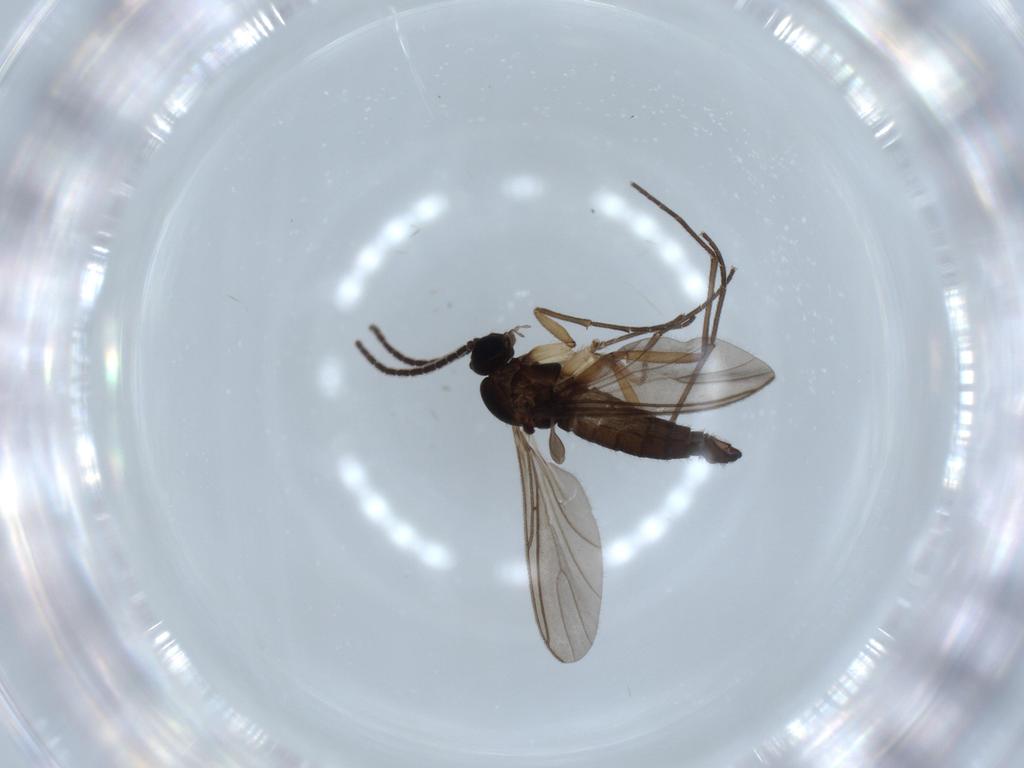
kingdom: Animalia
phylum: Arthropoda
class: Insecta
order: Diptera
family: Sciaridae
